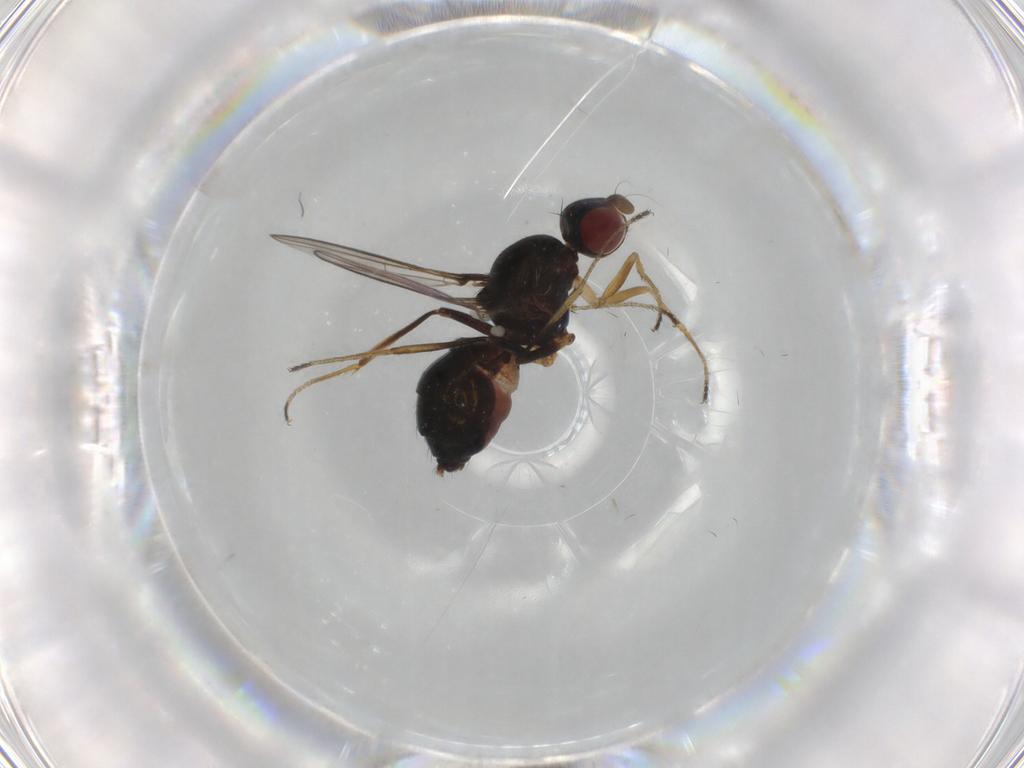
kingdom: Animalia
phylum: Arthropoda
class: Insecta
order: Diptera
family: Sepsidae
